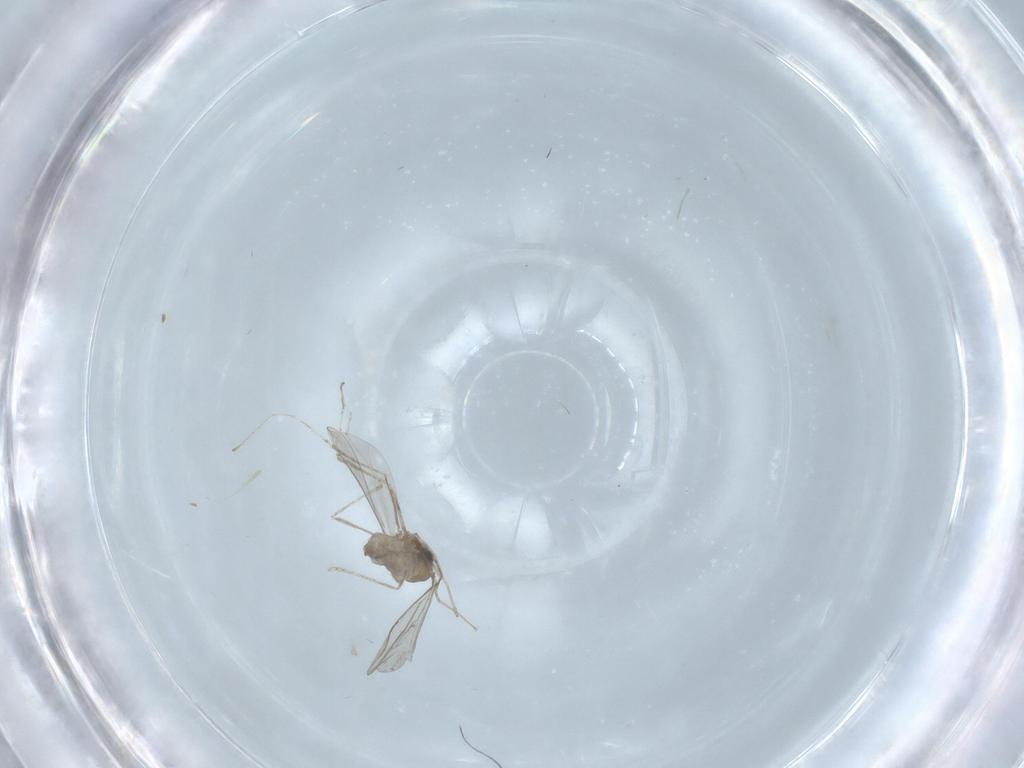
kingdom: Animalia
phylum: Arthropoda
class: Insecta
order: Diptera
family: Cecidomyiidae
